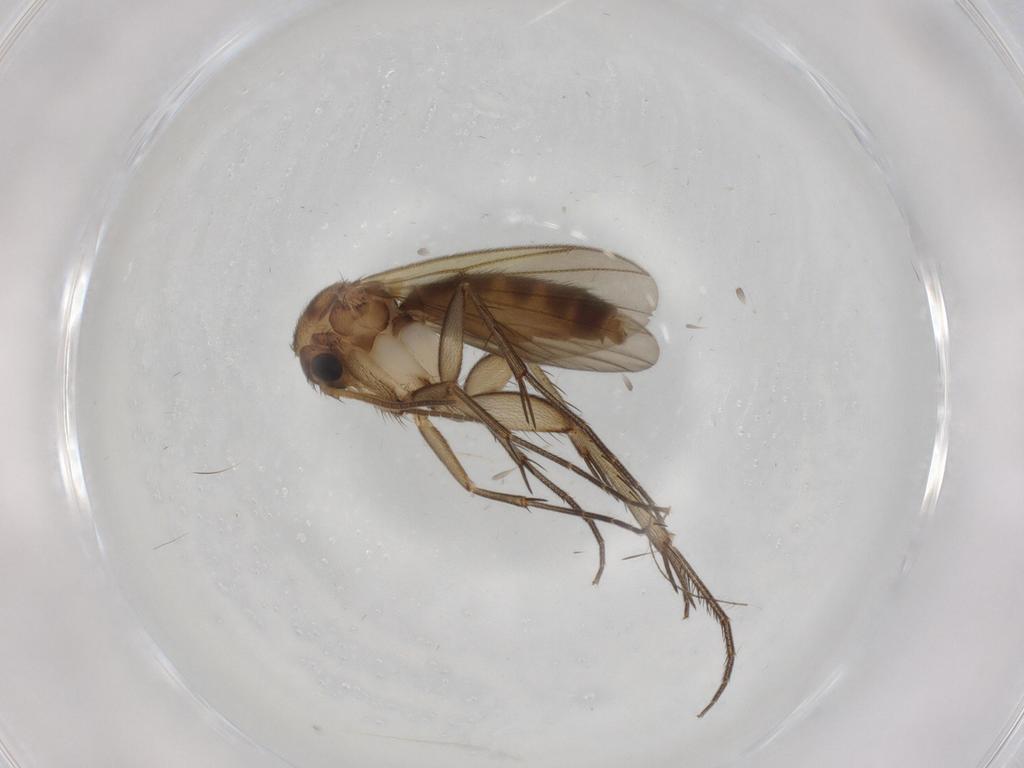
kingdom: Animalia
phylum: Arthropoda
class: Insecta
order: Diptera
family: Mycetophilidae
